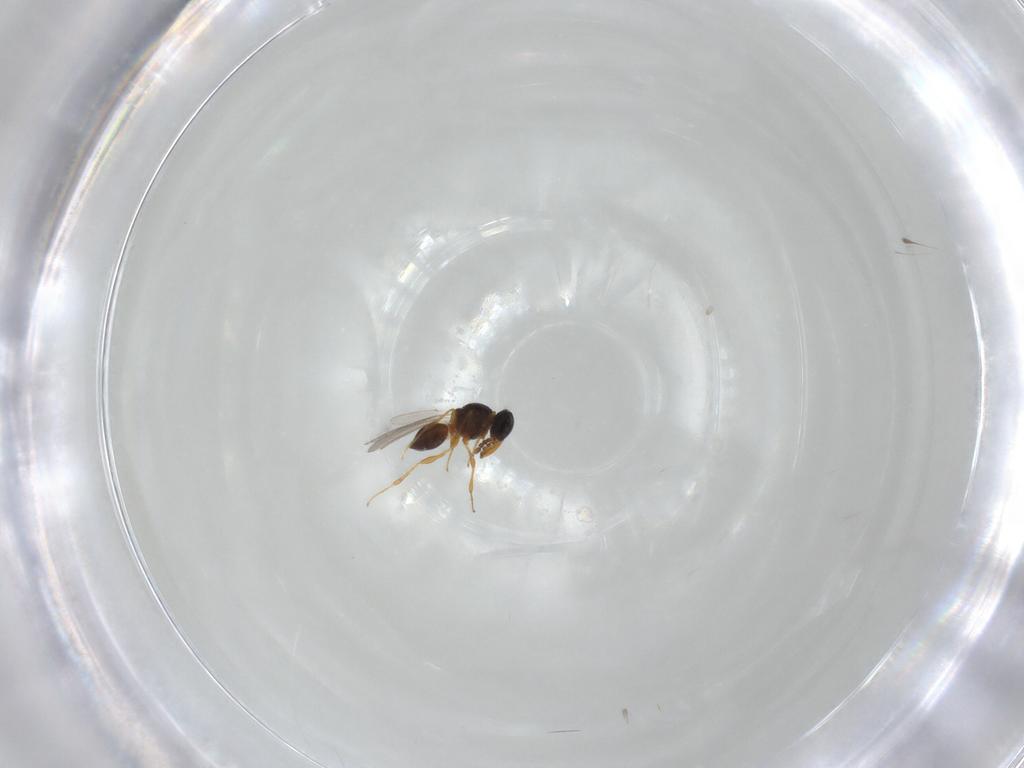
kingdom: Animalia
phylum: Arthropoda
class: Insecta
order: Hymenoptera
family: Platygastridae
